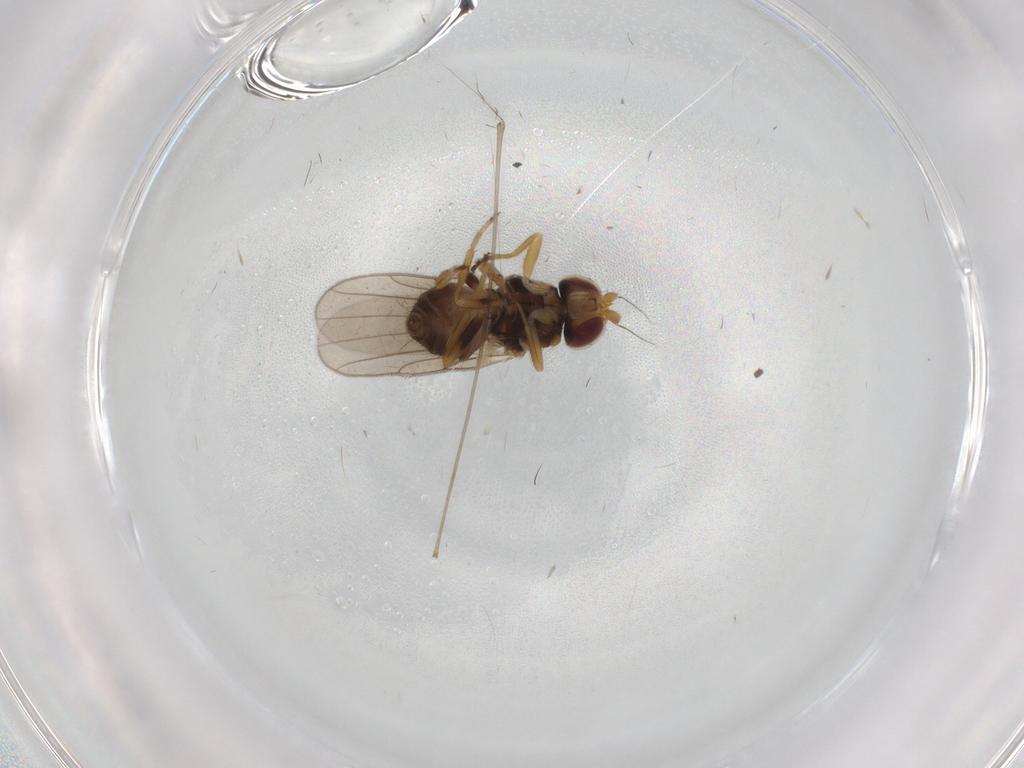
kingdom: Animalia
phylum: Arthropoda
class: Insecta
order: Diptera
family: Chloropidae
